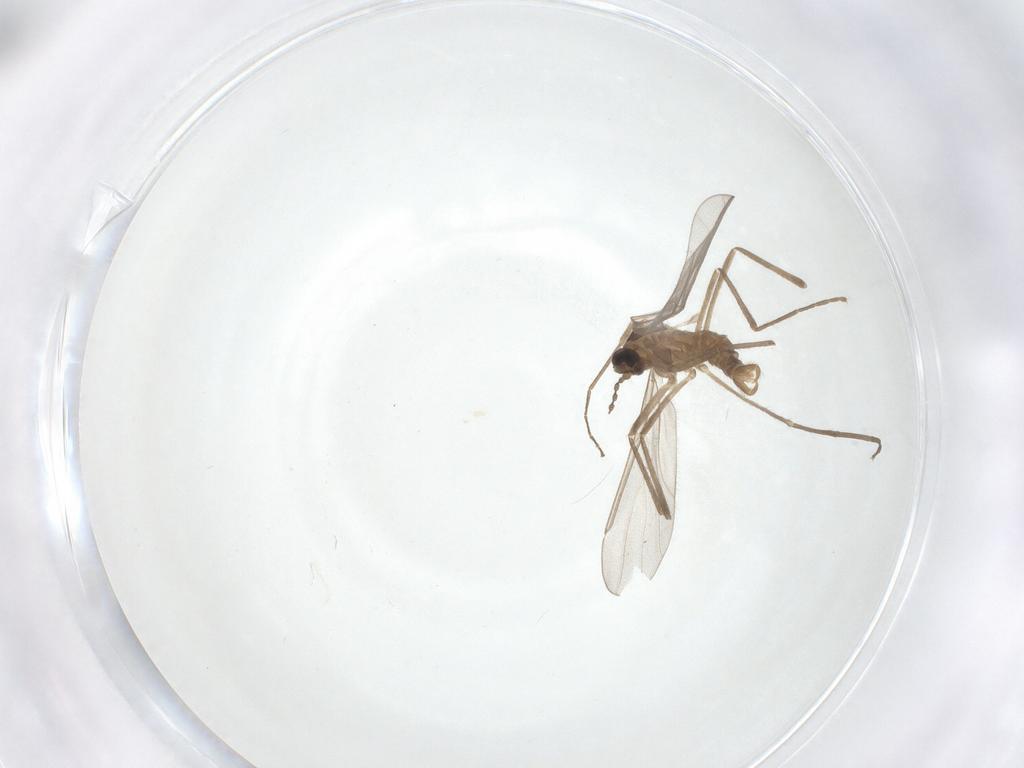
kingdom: Animalia
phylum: Arthropoda
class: Insecta
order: Diptera
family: Cecidomyiidae
